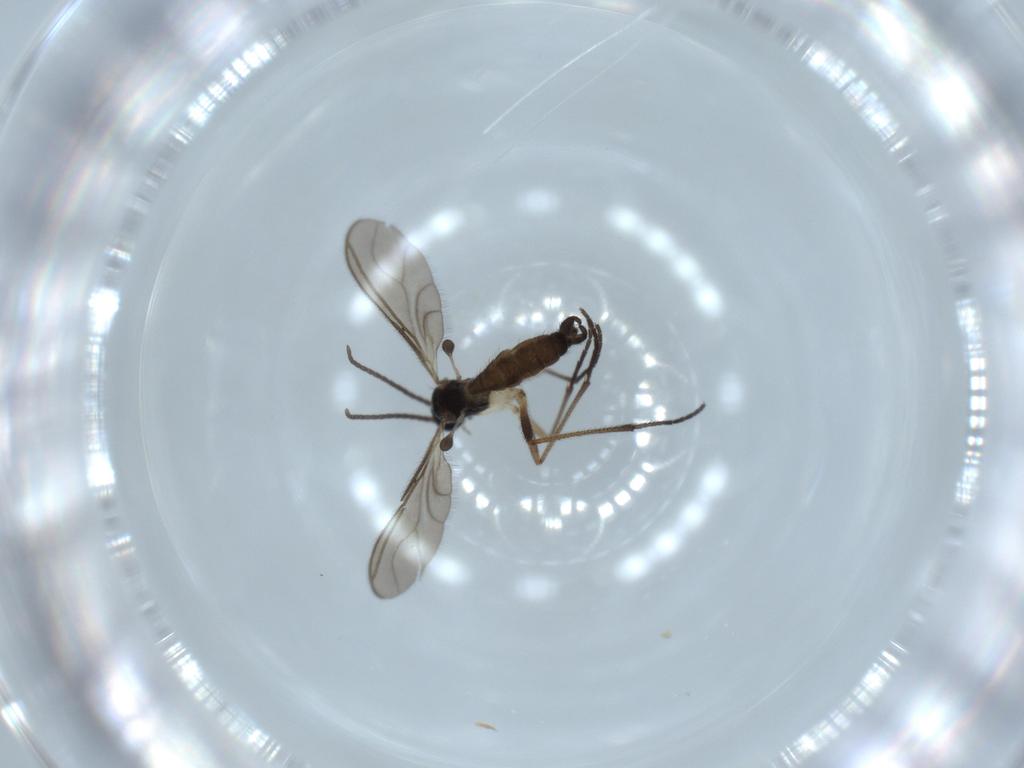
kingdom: Animalia
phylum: Arthropoda
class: Insecta
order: Diptera
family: Sciaridae
